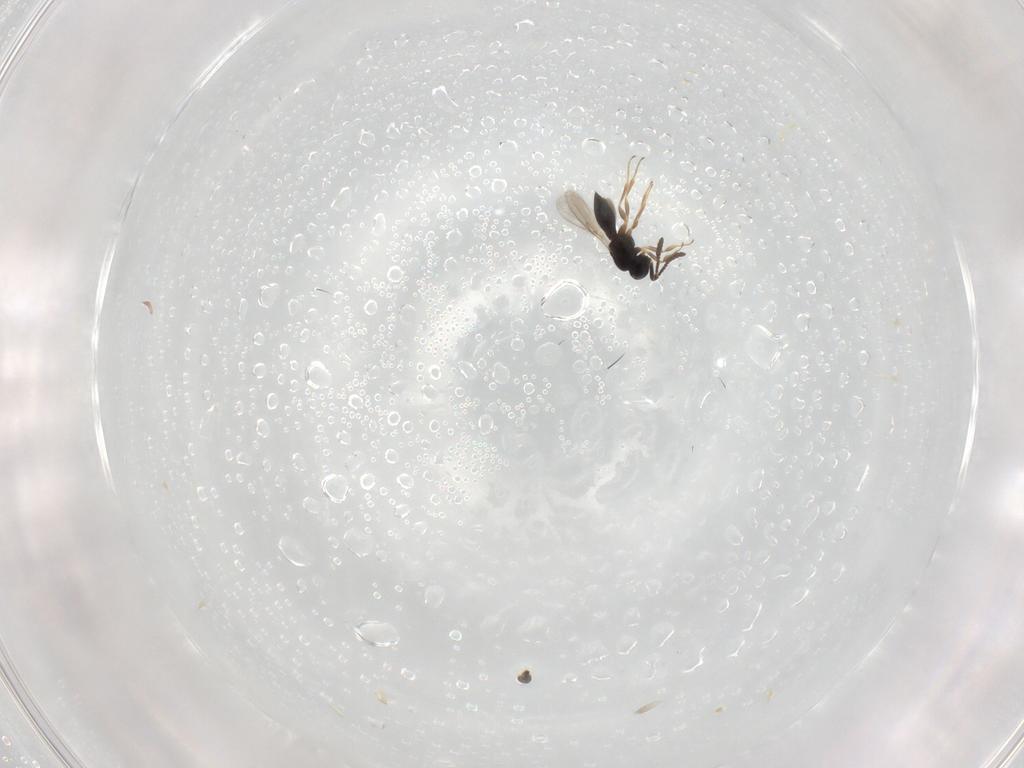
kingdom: Animalia
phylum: Arthropoda
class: Insecta
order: Hymenoptera
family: Scelionidae
